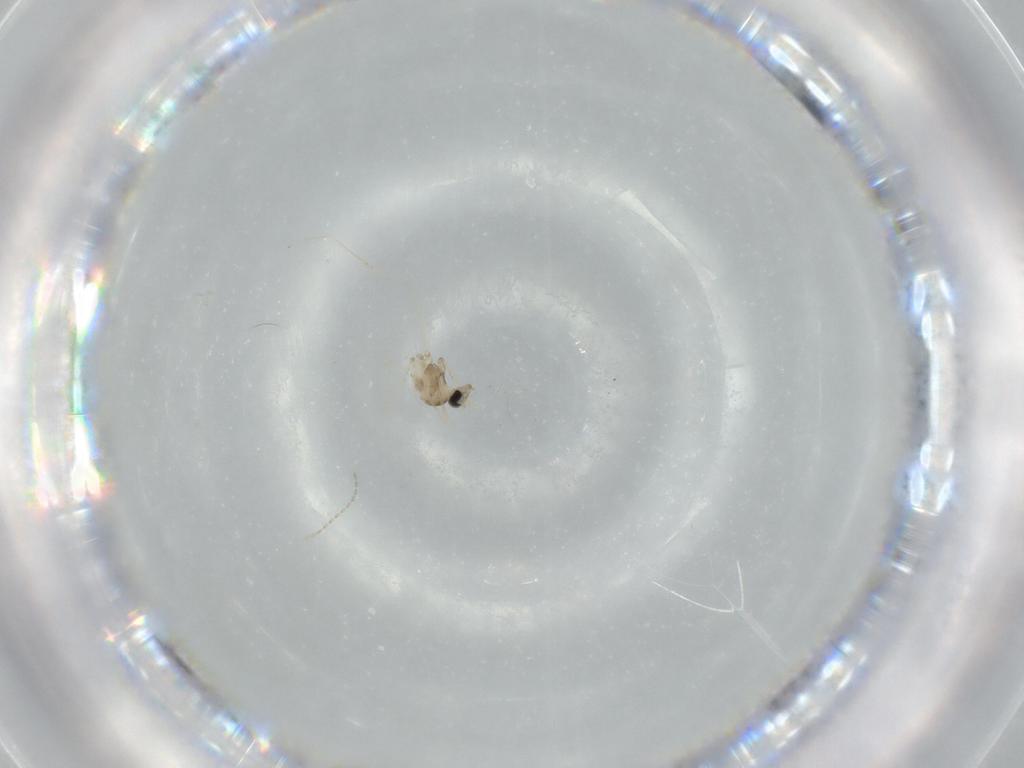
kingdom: Animalia
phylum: Arthropoda
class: Insecta
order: Diptera
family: Cecidomyiidae
